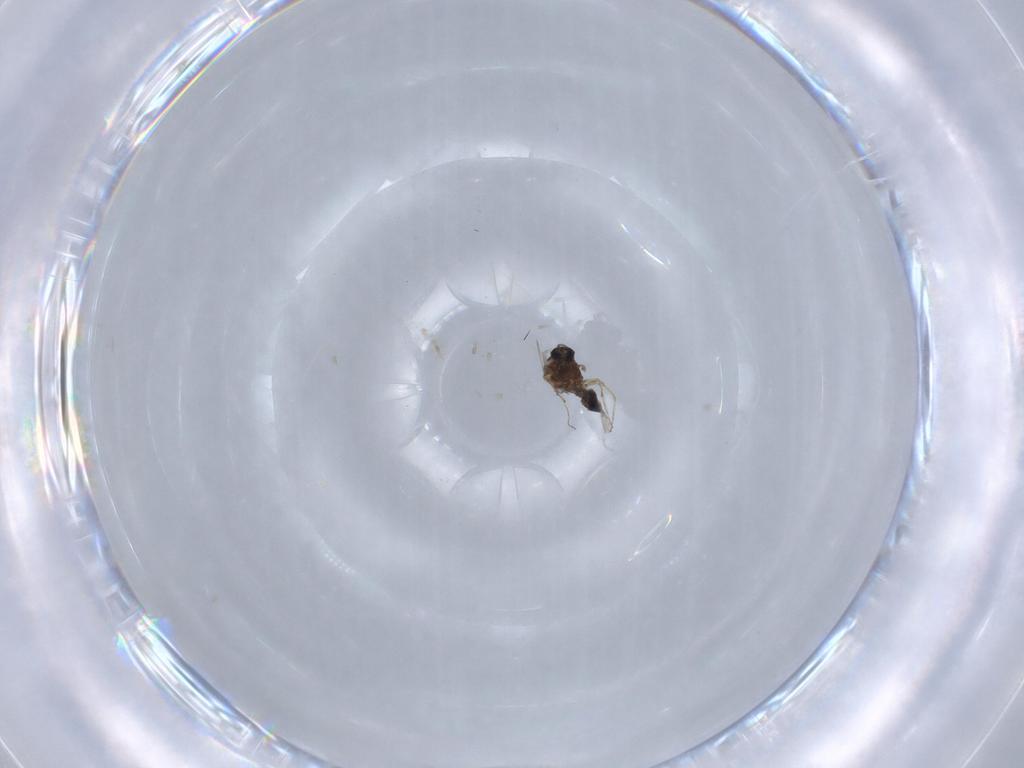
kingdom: Animalia
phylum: Arthropoda
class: Insecta
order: Diptera
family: Ceratopogonidae
